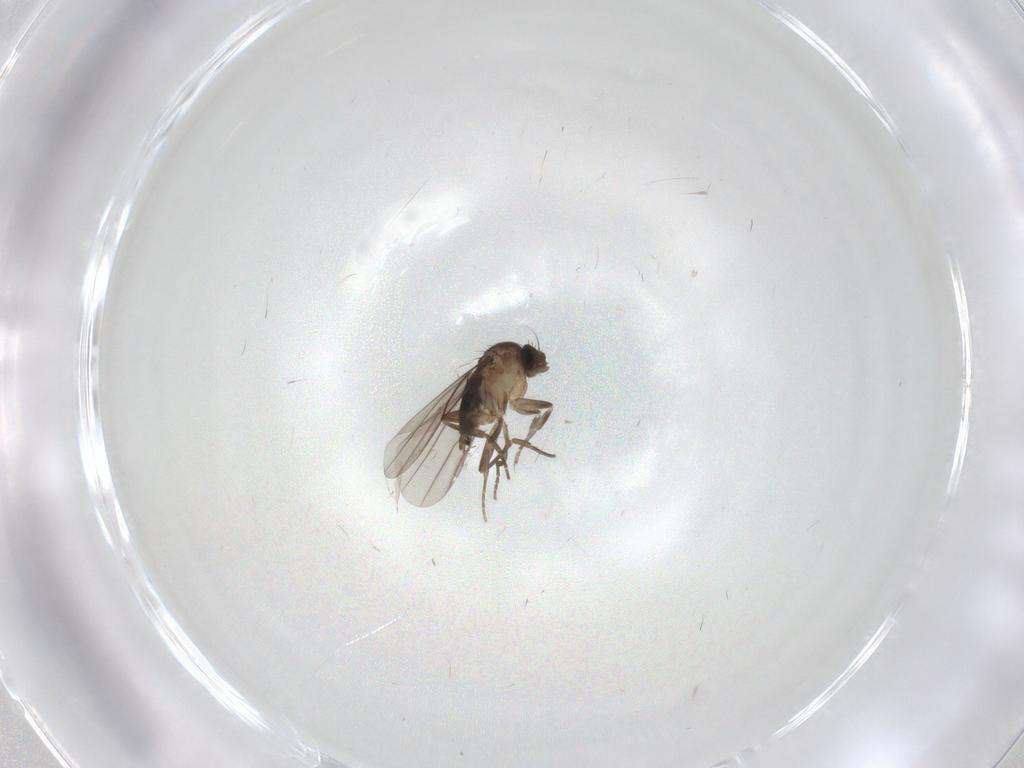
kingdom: Animalia
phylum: Arthropoda
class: Insecta
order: Diptera
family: Phoridae
